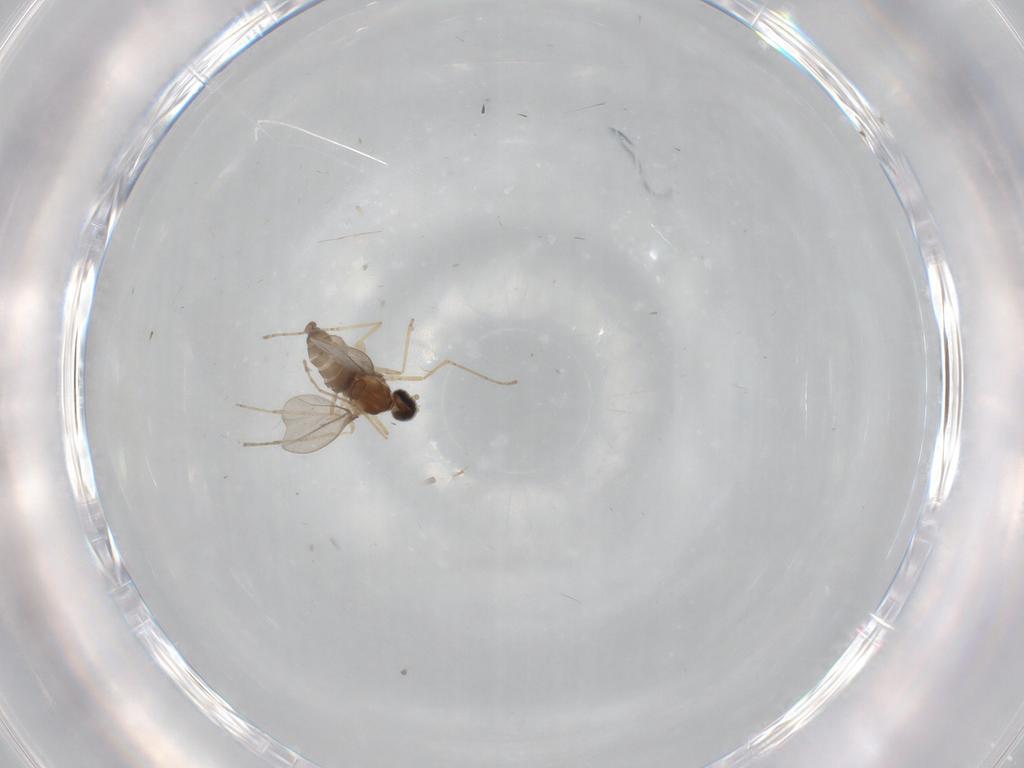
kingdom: Animalia
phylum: Arthropoda
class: Insecta
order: Diptera
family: Cecidomyiidae
